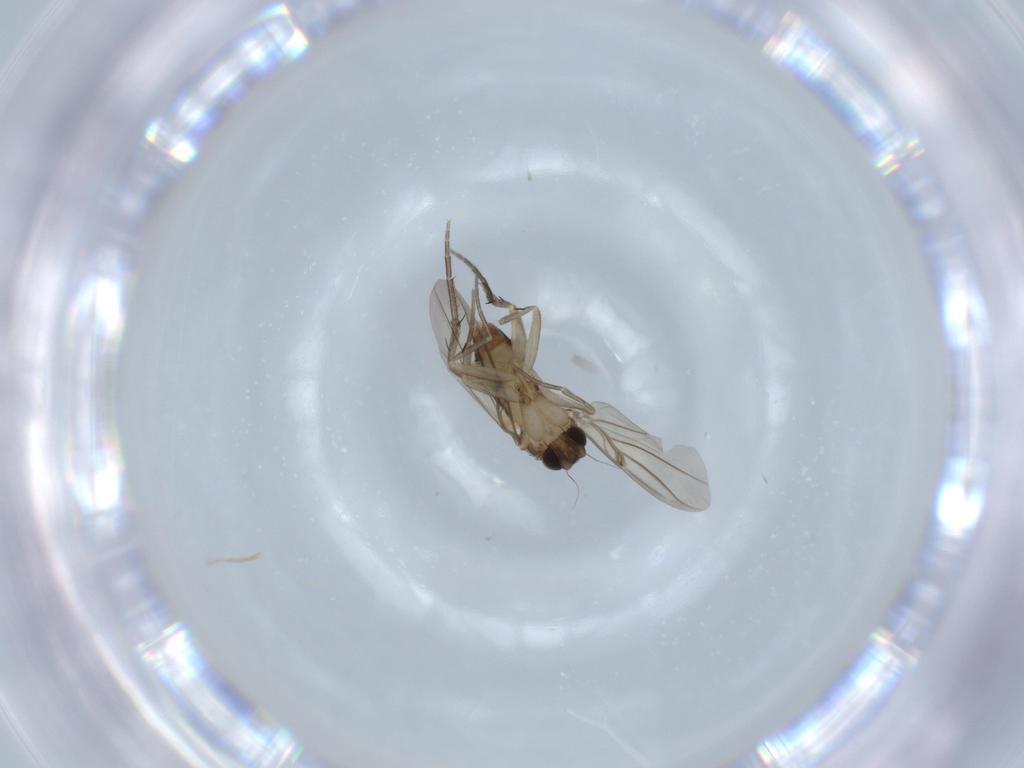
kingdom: Animalia
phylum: Arthropoda
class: Insecta
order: Diptera
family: Phoridae
